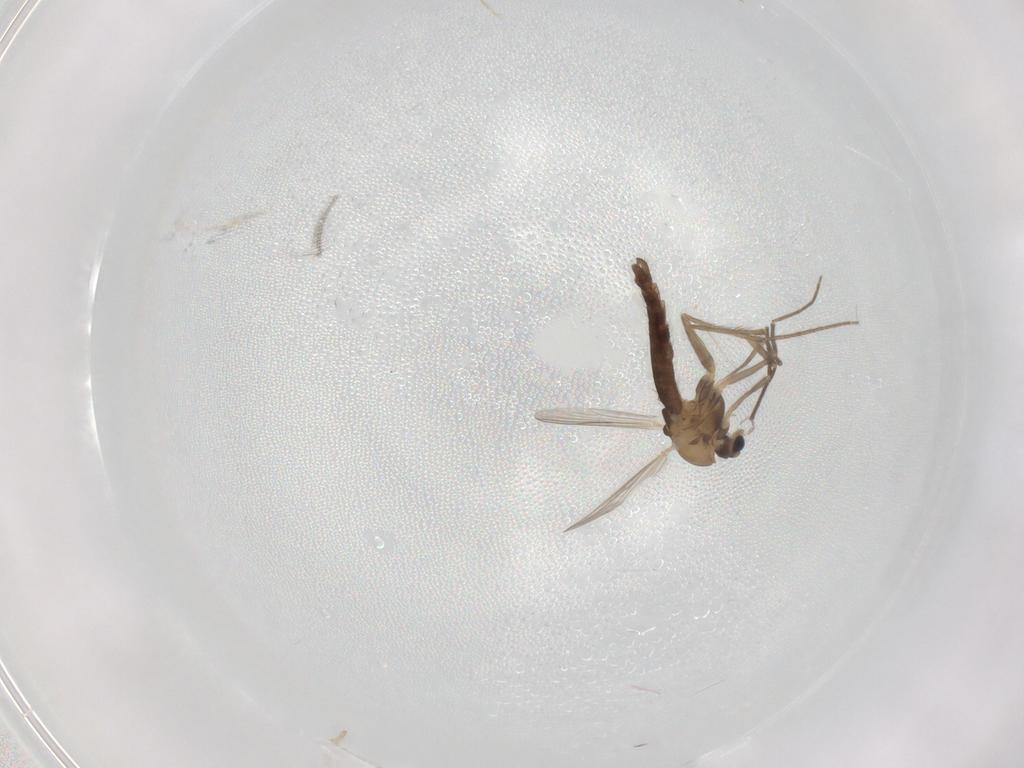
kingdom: Animalia
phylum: Arthropoda
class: Insecta
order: Diptera
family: Chironomidae
